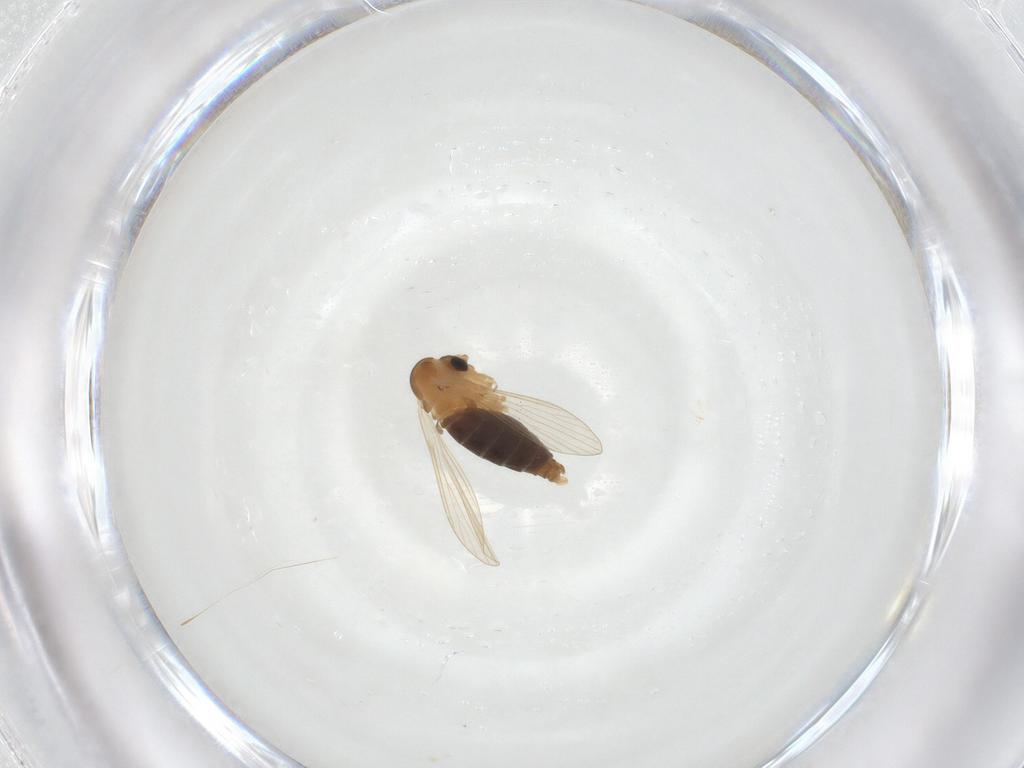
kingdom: Animalia
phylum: Arthropoda
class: Insecta
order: Diptera
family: Psychodidae
